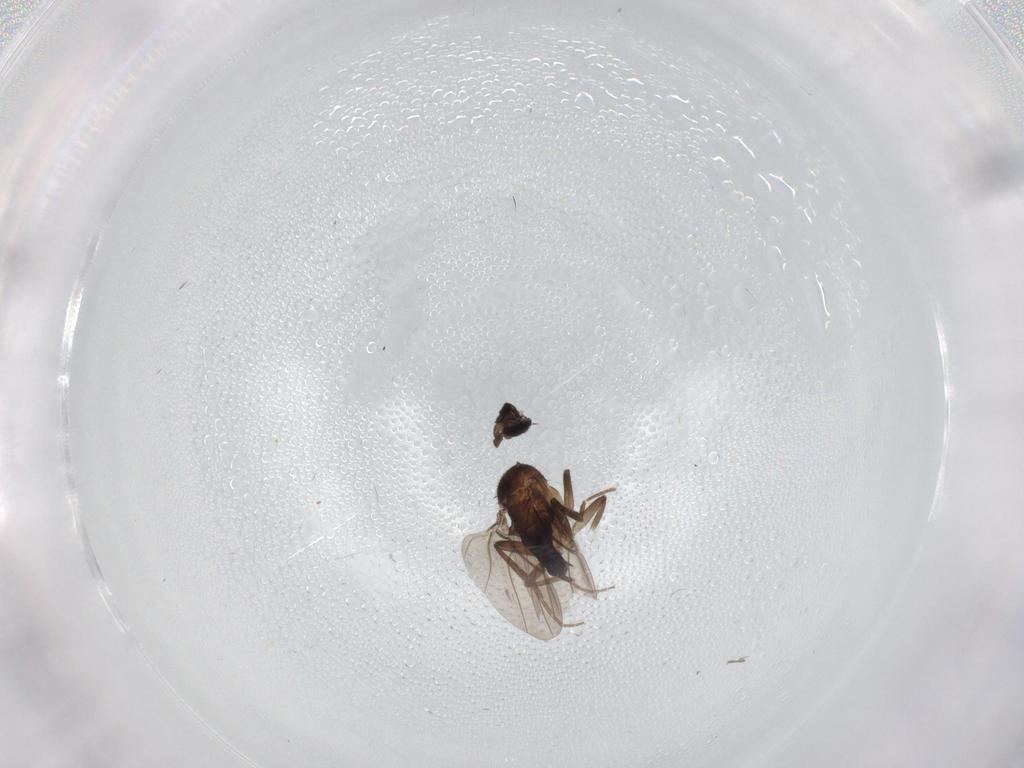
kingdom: Animalia
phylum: Arthropoda
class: Insecta
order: Diptera
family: Phoridae
